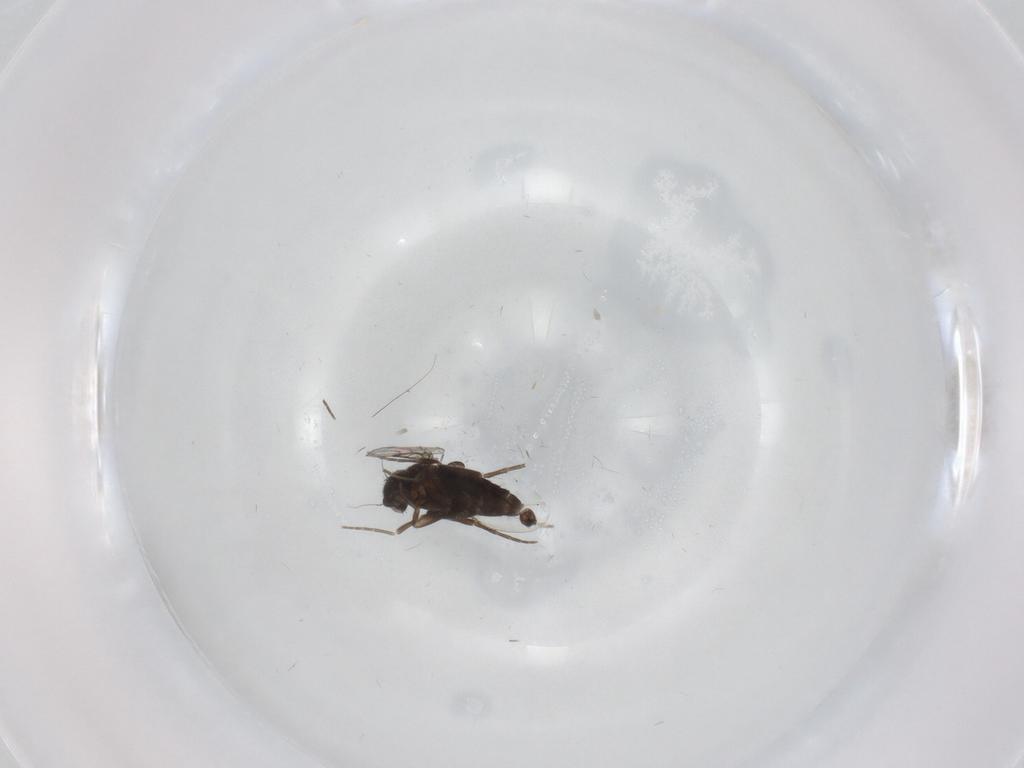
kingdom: Animalia
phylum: Arthropoda
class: Insecta
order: Diptera
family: Phoridae
